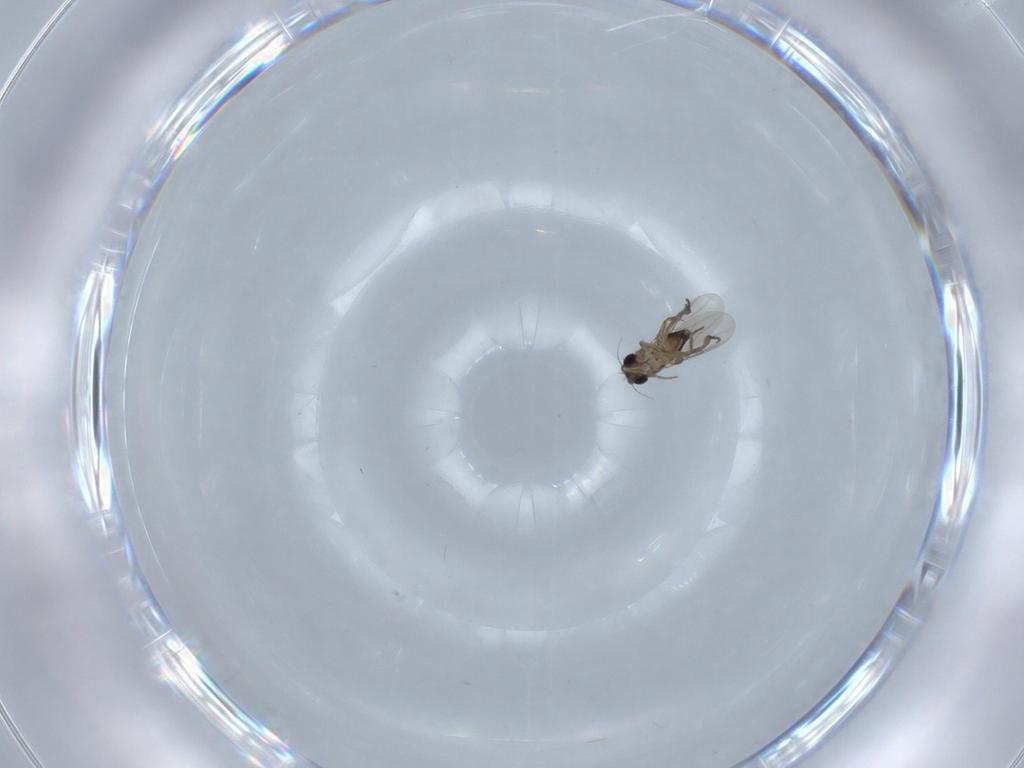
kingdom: Animalia
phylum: Arthropoda
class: Insecta
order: Diptera
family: Phoridae
